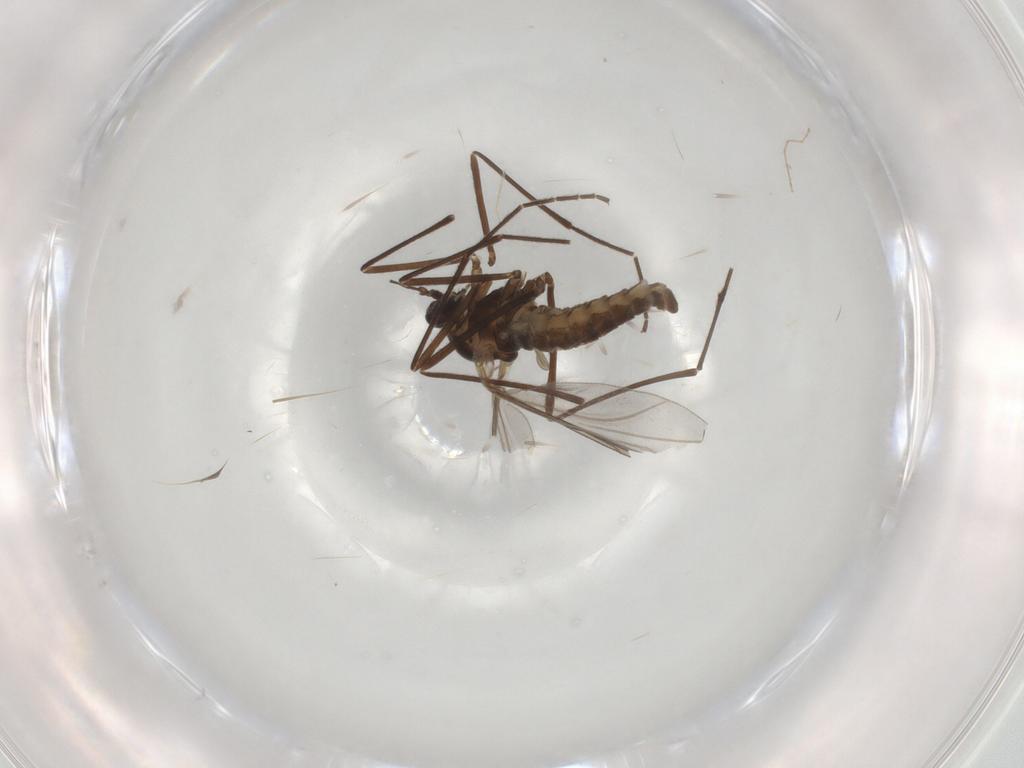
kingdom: Animalia
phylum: Arthropoda
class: Insecta
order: Diptera
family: Cecidomyiidae
